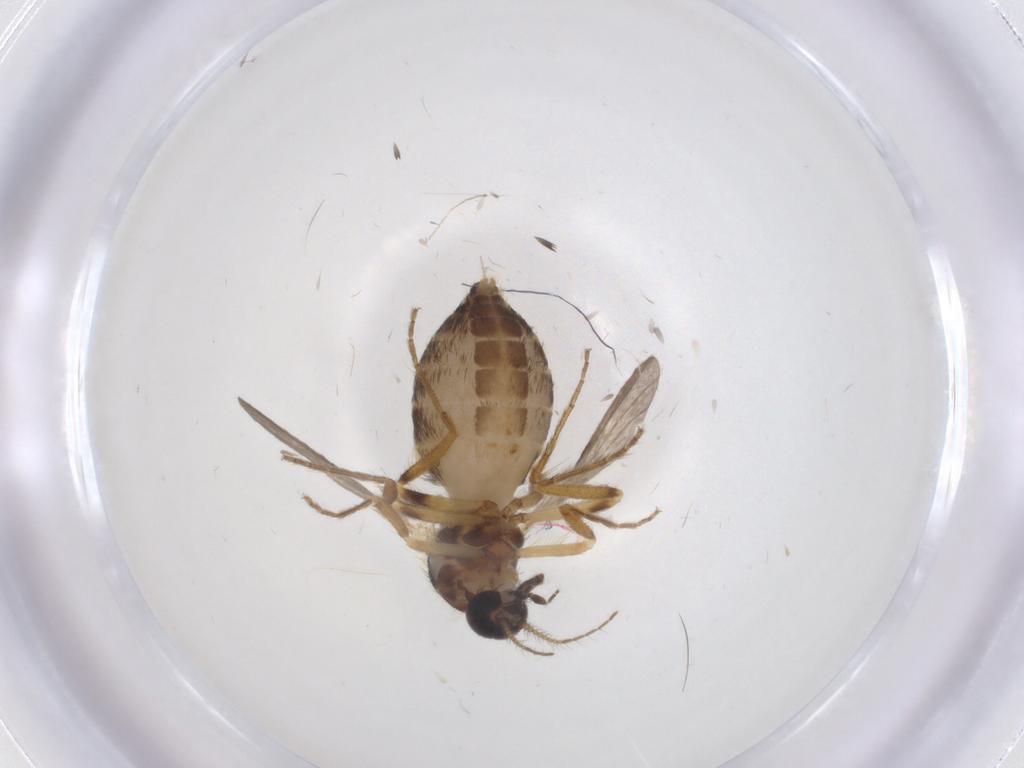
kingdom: Animalia
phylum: Arthropoda
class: Insecta
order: Diptera
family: Ceratopogonidae
